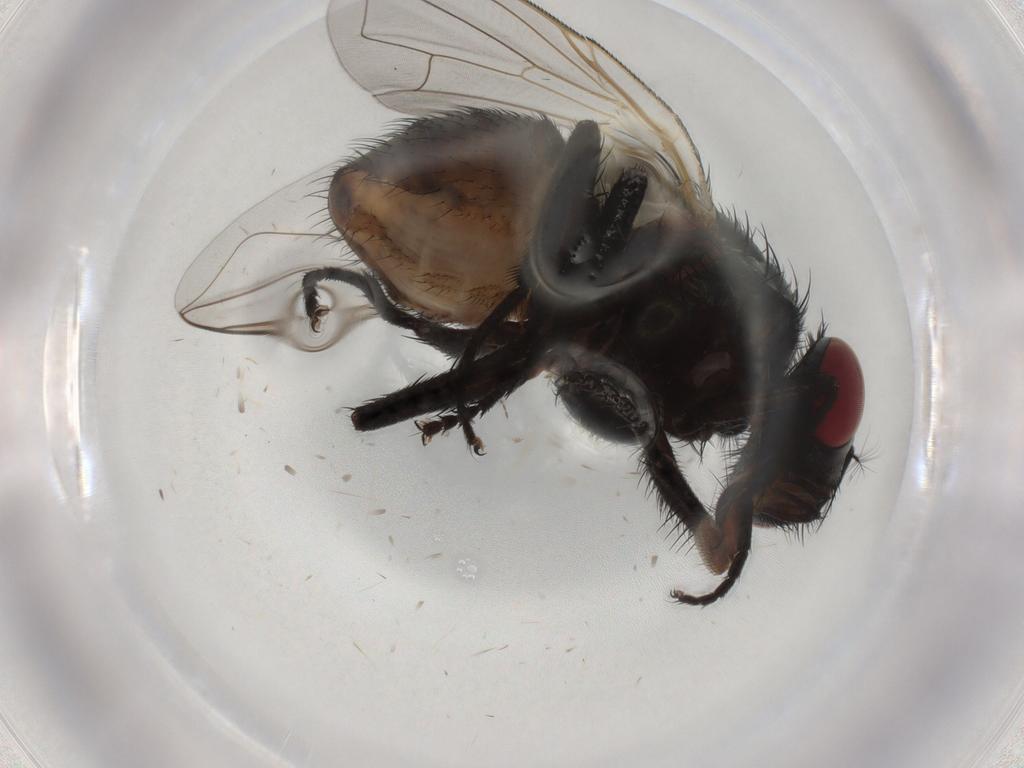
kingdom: Animalia
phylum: Arthropoda
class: Insecta
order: Diptera
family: Muscidae
